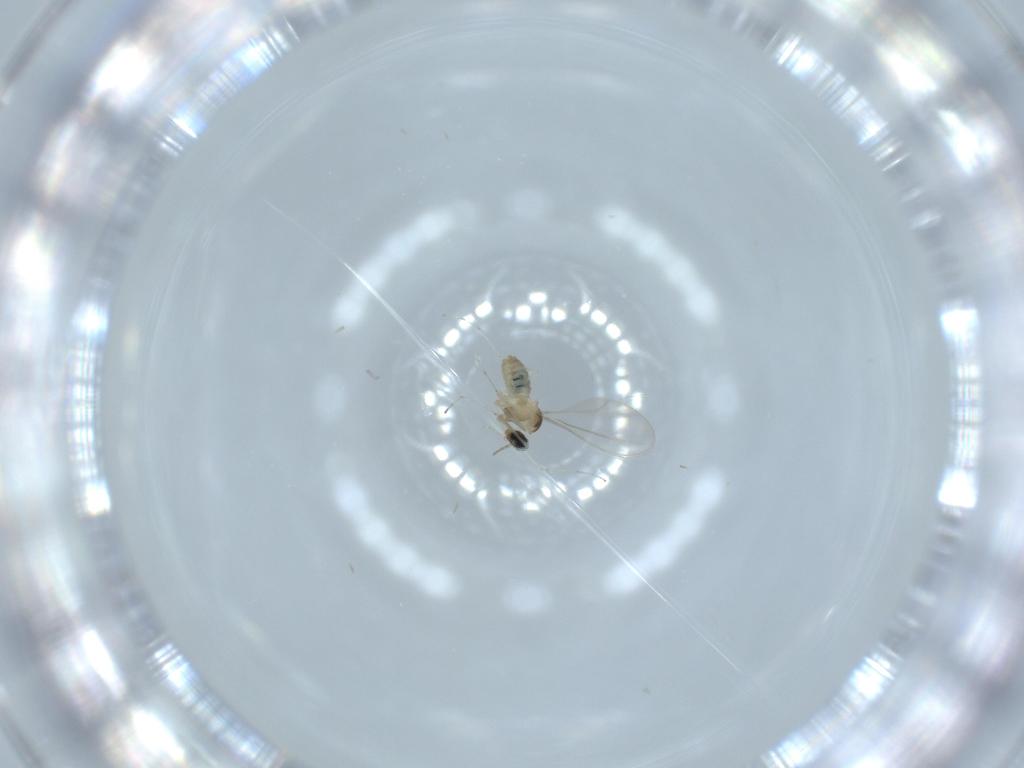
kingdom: Animalia
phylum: Arthropoda
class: Insecta
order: Diptera
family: Cecidomyiidae
